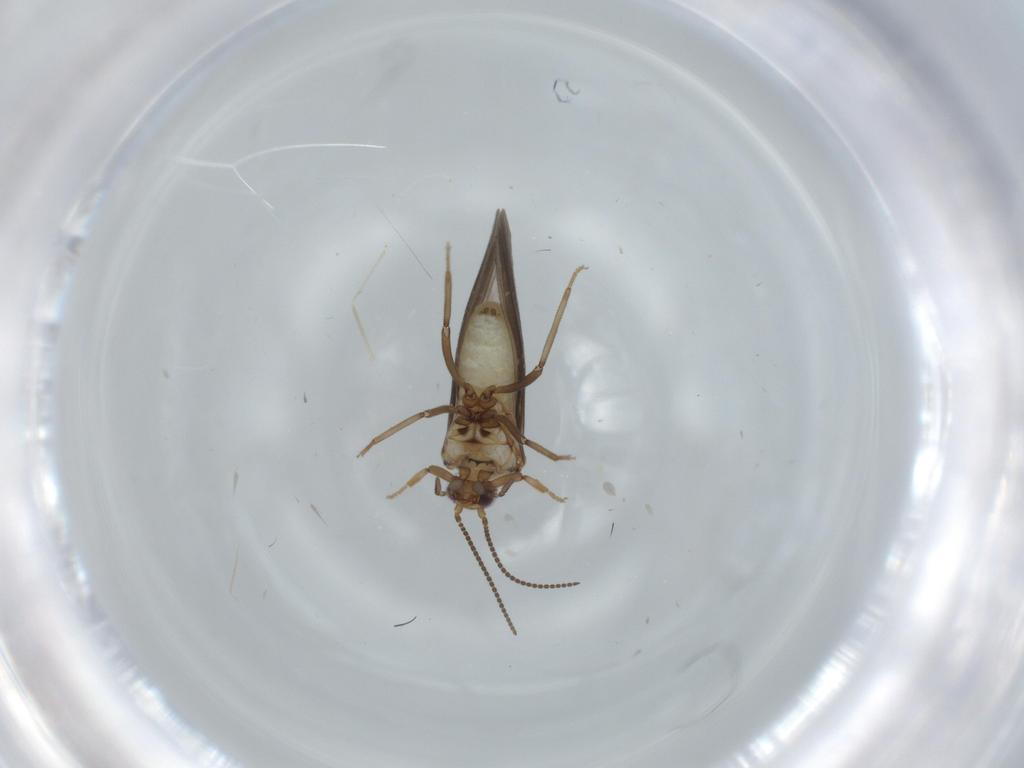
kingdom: Animalia
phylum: Arthropoda
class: Insecta
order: Neuroptera
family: Coniopterygidae
